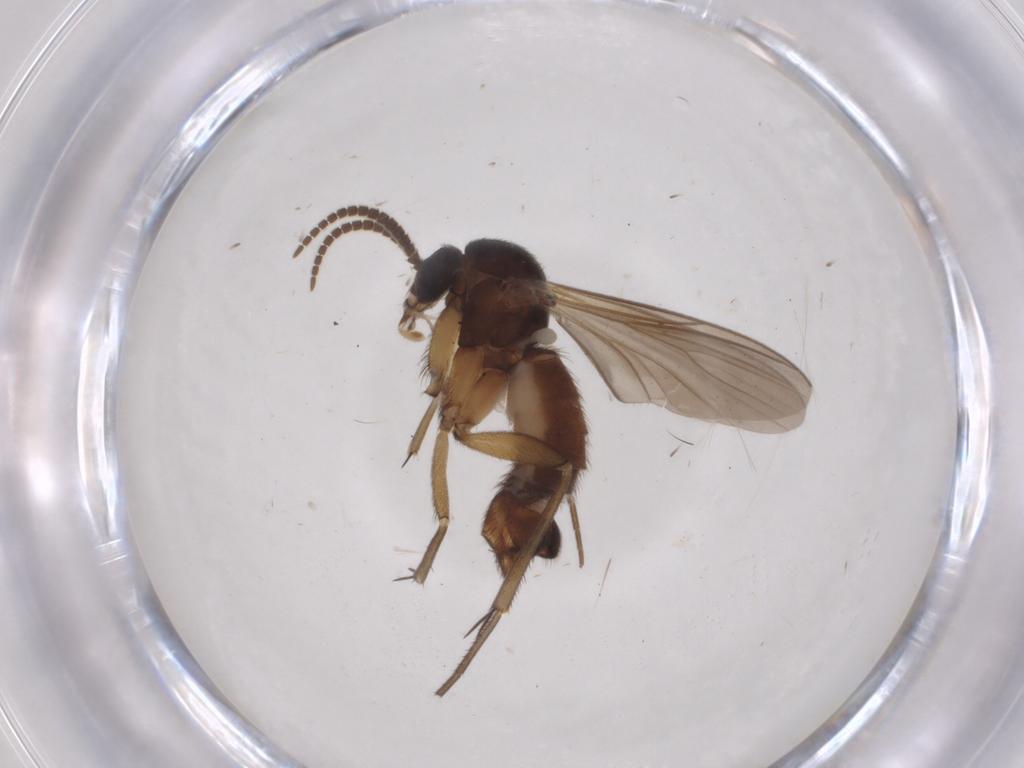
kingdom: Animalia
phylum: Arthropoda
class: Insecta
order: Diptera
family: Mycetophilidae
